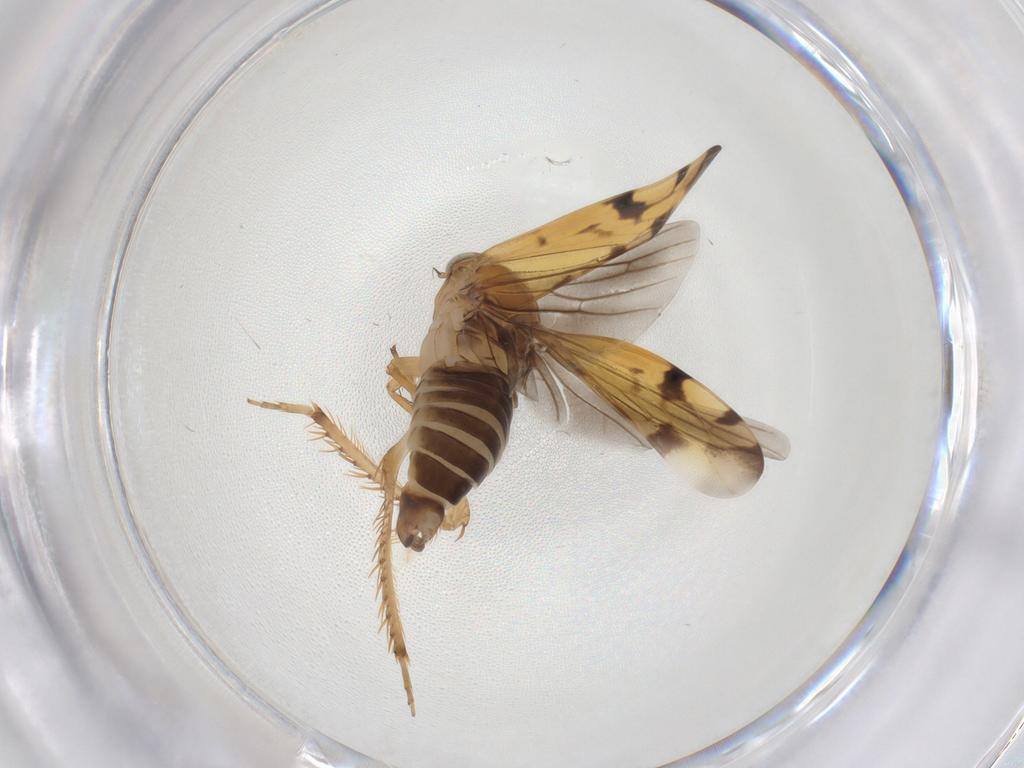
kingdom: Animalia
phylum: Arthropoda
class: Insecta
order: Hemiptera
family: Cicadellidae
